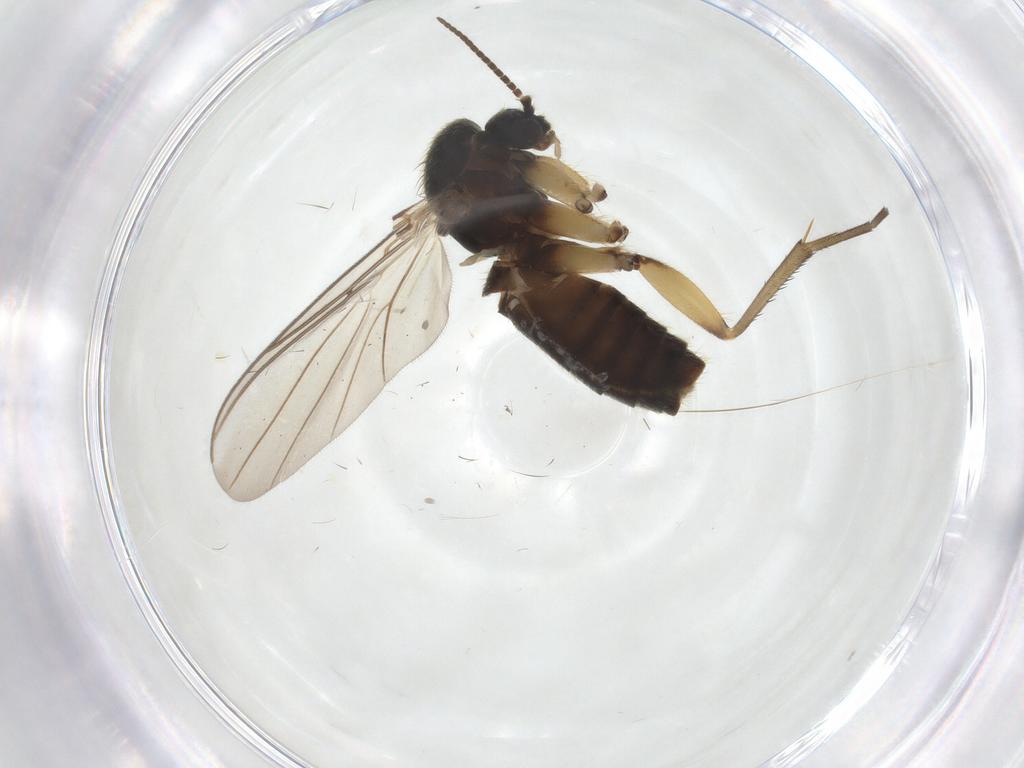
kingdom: Animalia
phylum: Arthropoda
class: Insecta
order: Diptera
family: Mycetophilidae
